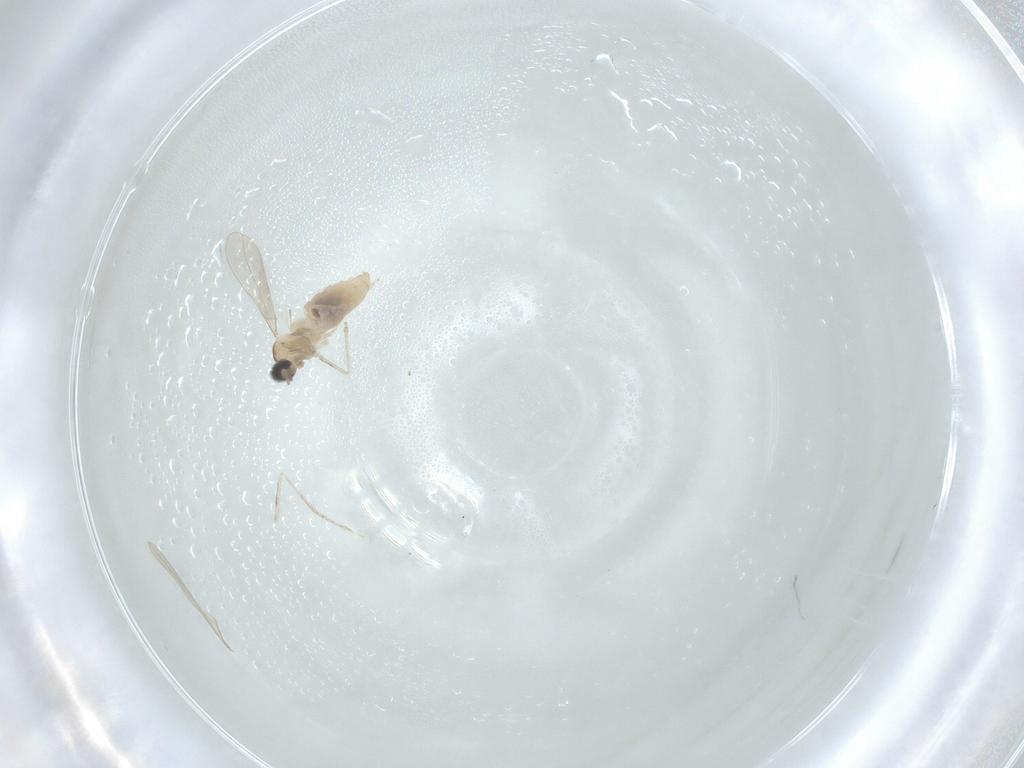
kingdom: Animalia
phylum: Arthropoda
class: Insecta
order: Diptera
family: Cecidomyiidae
